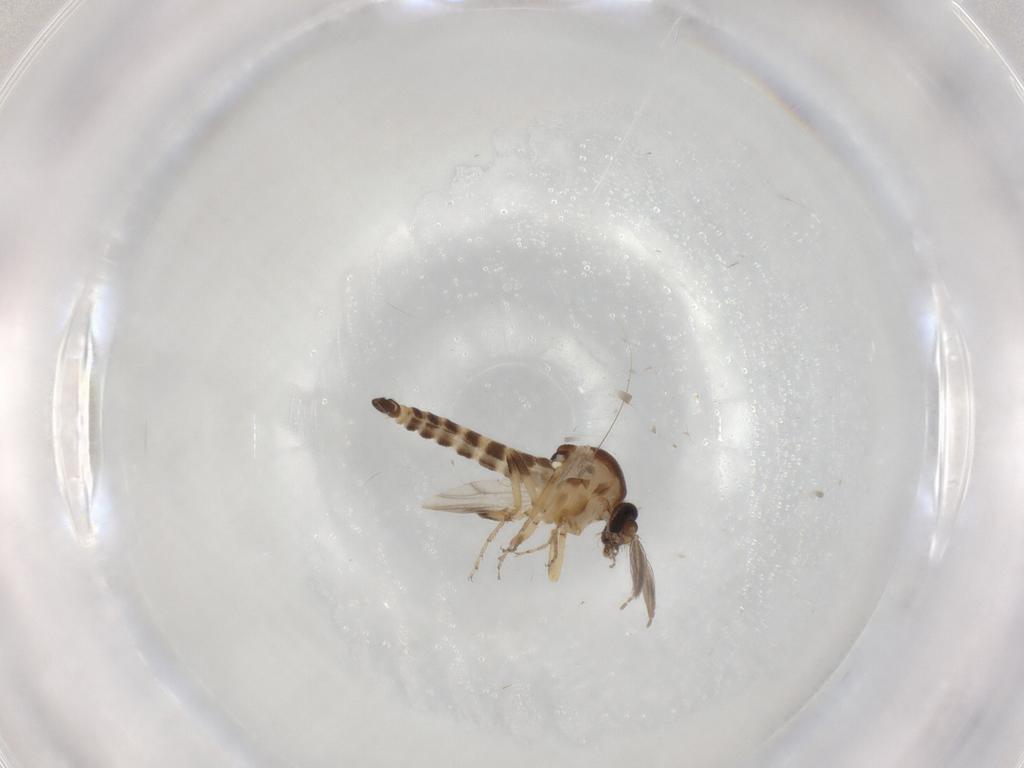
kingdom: Animalia
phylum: Arthropoda
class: Insecta
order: Diptera
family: Ceratopogonidae
